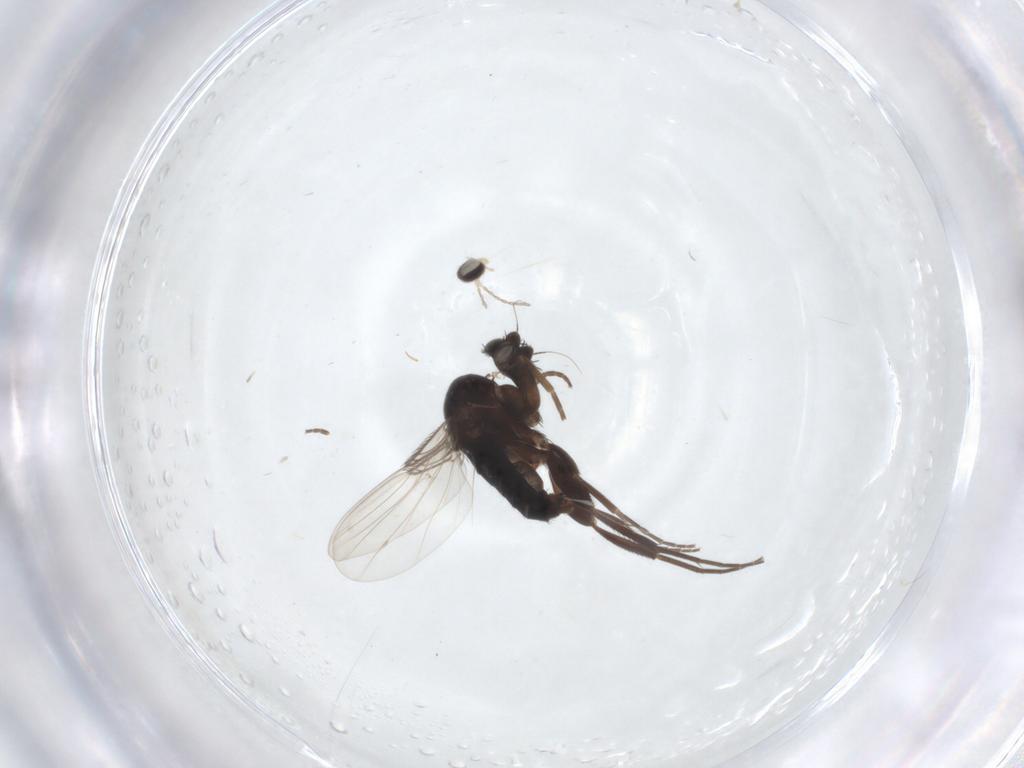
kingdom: Animalia
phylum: Arthropoda
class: Insecta
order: Diptera
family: Phoridae
